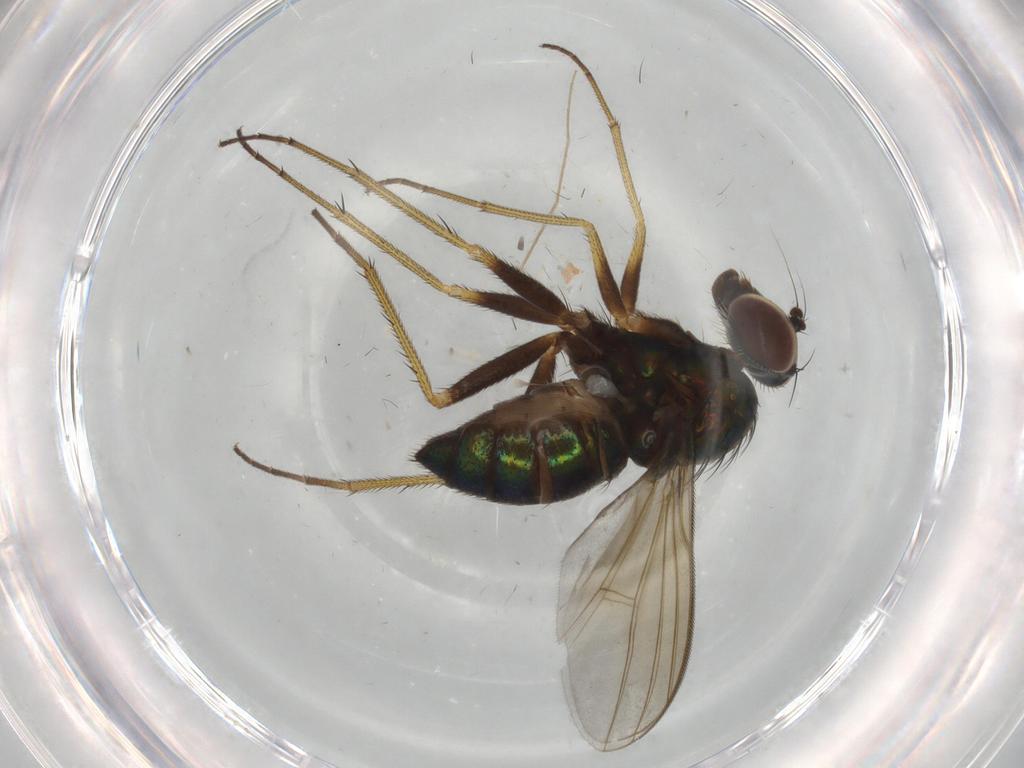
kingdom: Animalia
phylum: Arthropoda
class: Insecta
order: Diptera
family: Dolichopodidae
